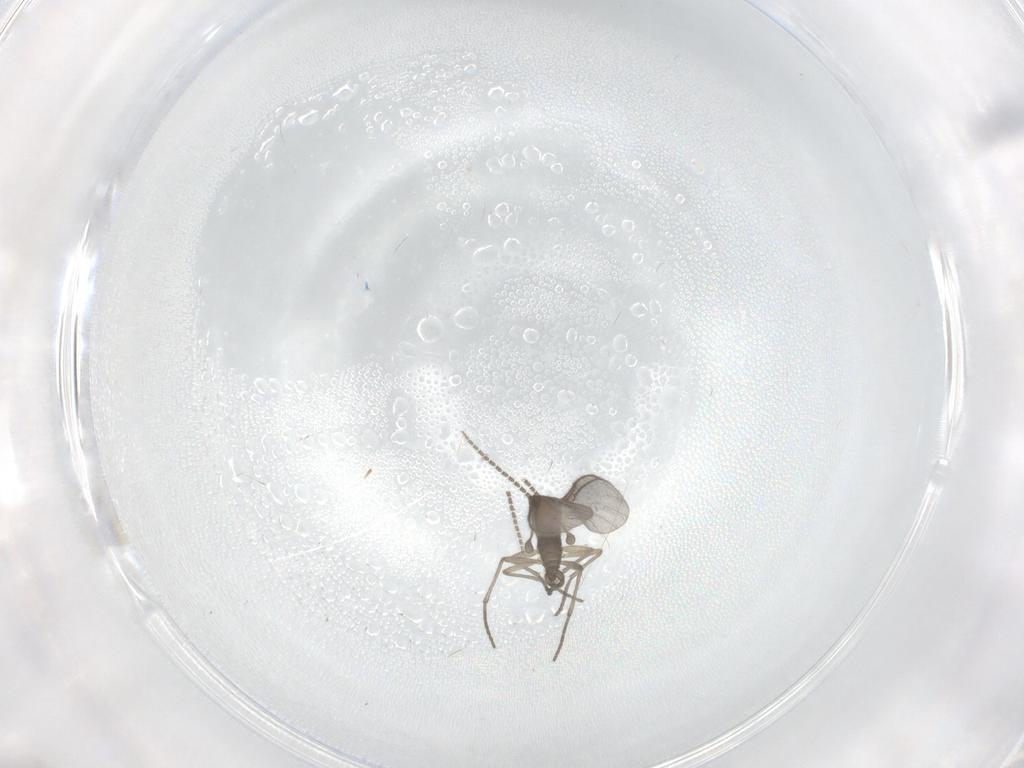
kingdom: Animalia
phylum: Arthropoda
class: Insecta
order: Diptera
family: Sciaridae
